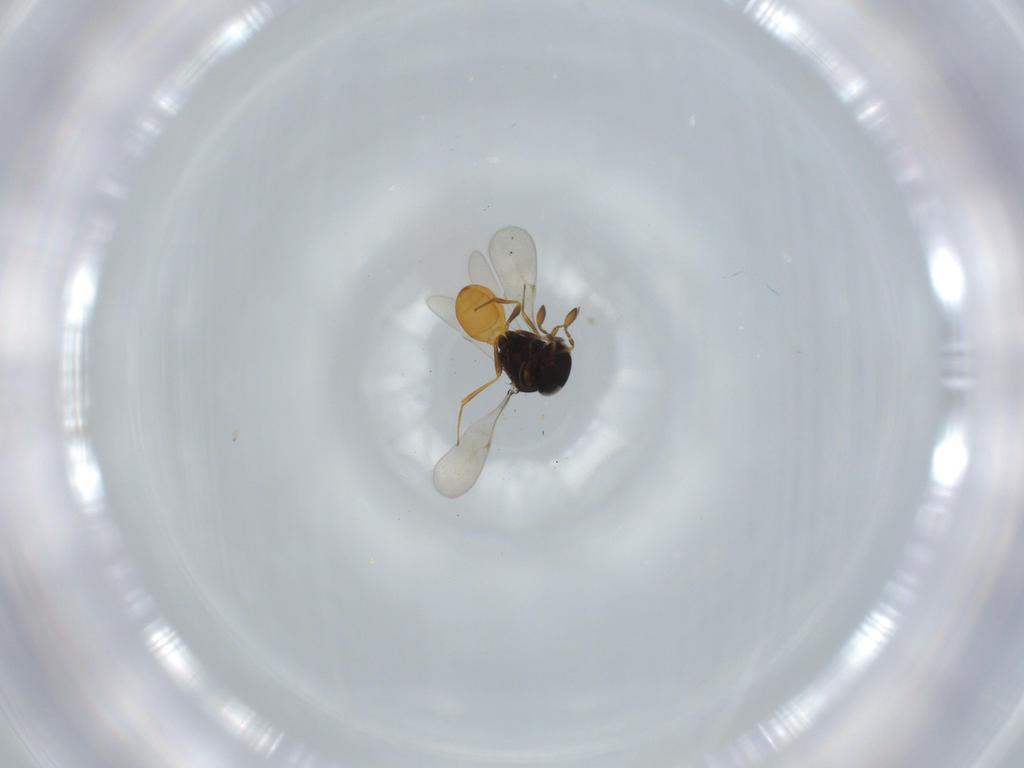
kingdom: Animalia
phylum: Arthropoda
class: Insecta
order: Hymenoptera
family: Scelionidae
